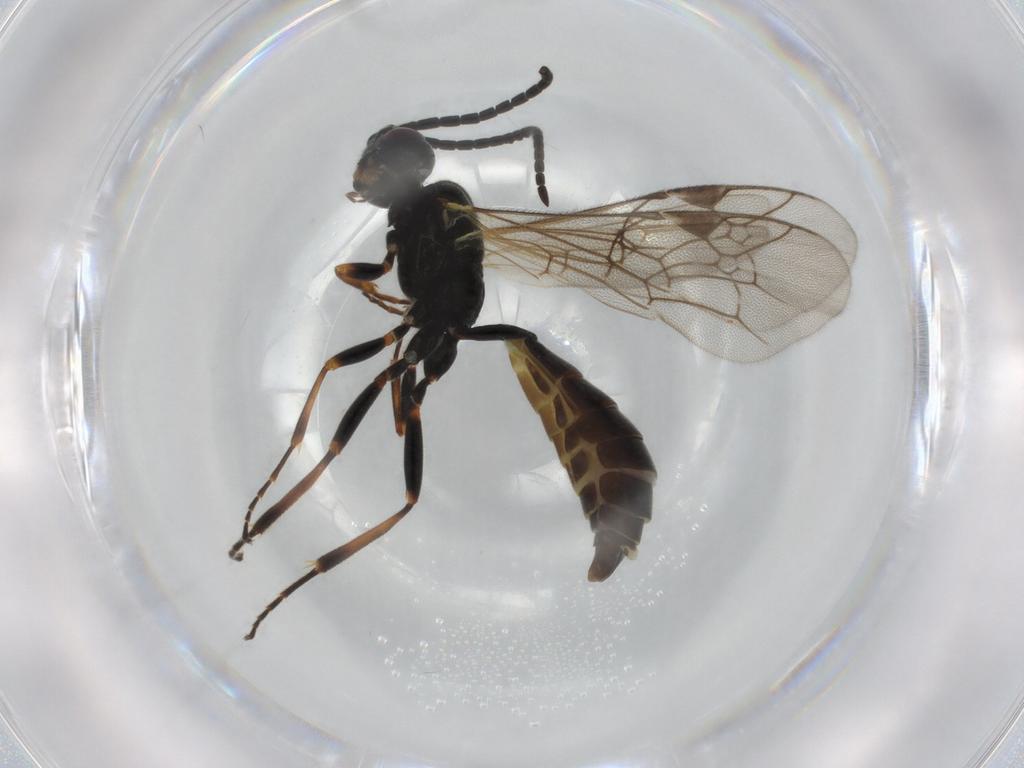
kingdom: Animalia
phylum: Arthropoda
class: Insecta
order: Hymenoptera
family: Ichneumonidae
